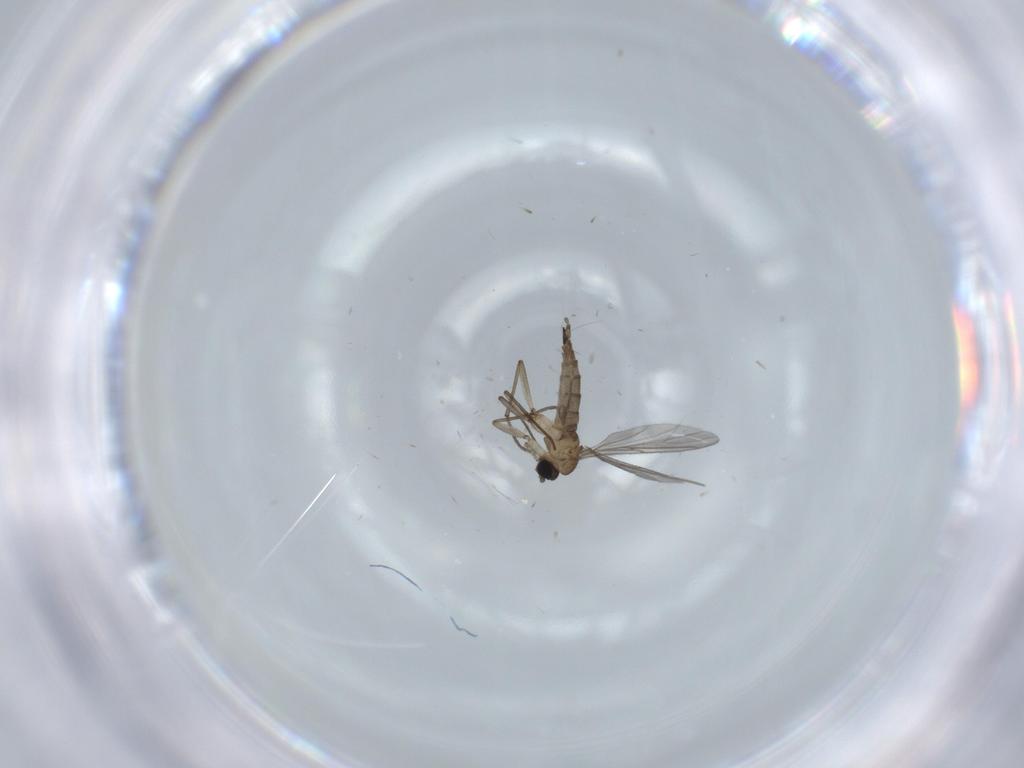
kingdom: Animalia
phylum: Arthropoda
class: Insecta
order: Diptera
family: Sciaridae
